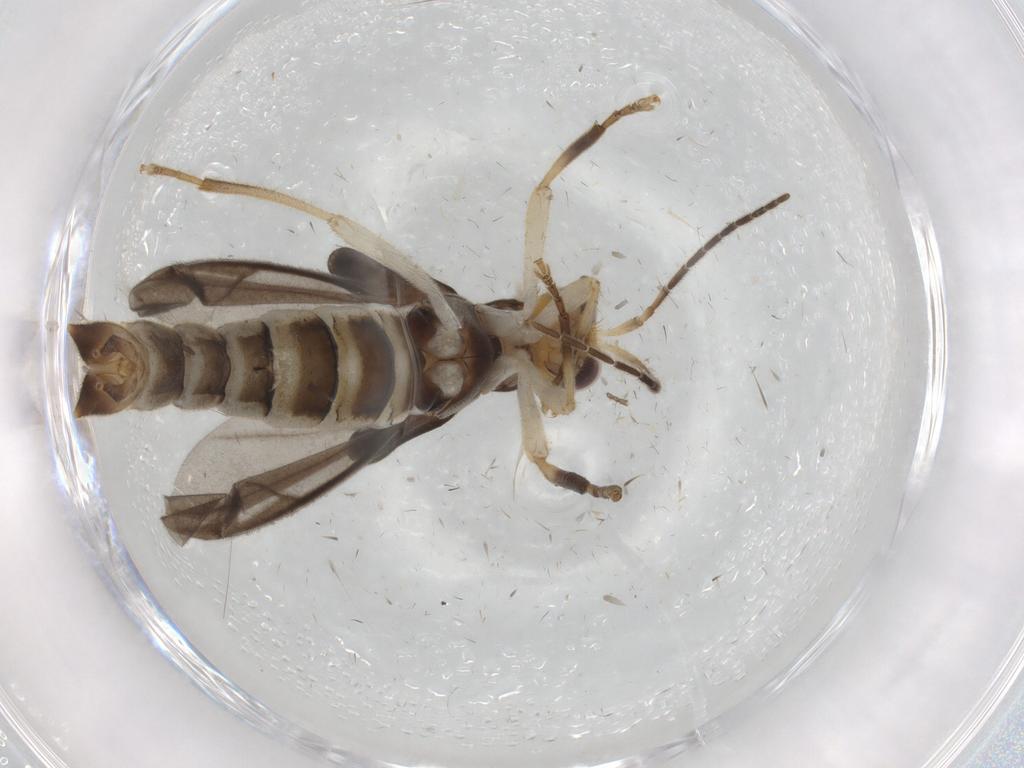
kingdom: Animalia
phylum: Arthropoda
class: Insecta
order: Coleoptera
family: Cantharidae
